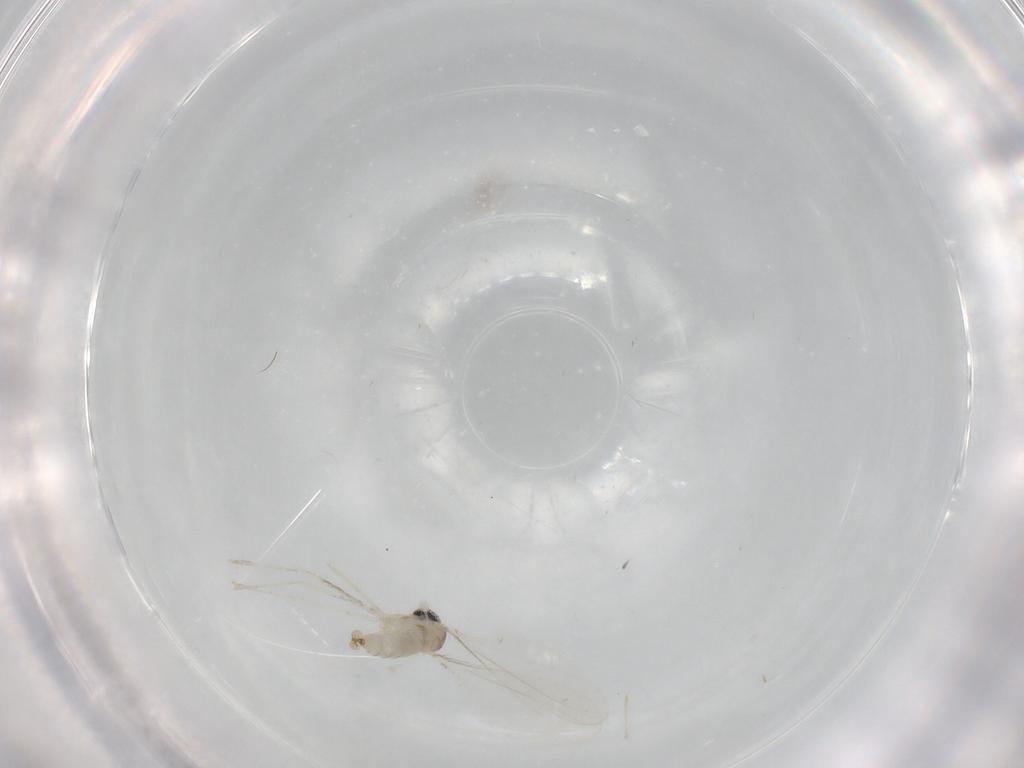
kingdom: Animalia
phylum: Arthropoda
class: Insecta
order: Diptera
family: Cecidomyiidae
